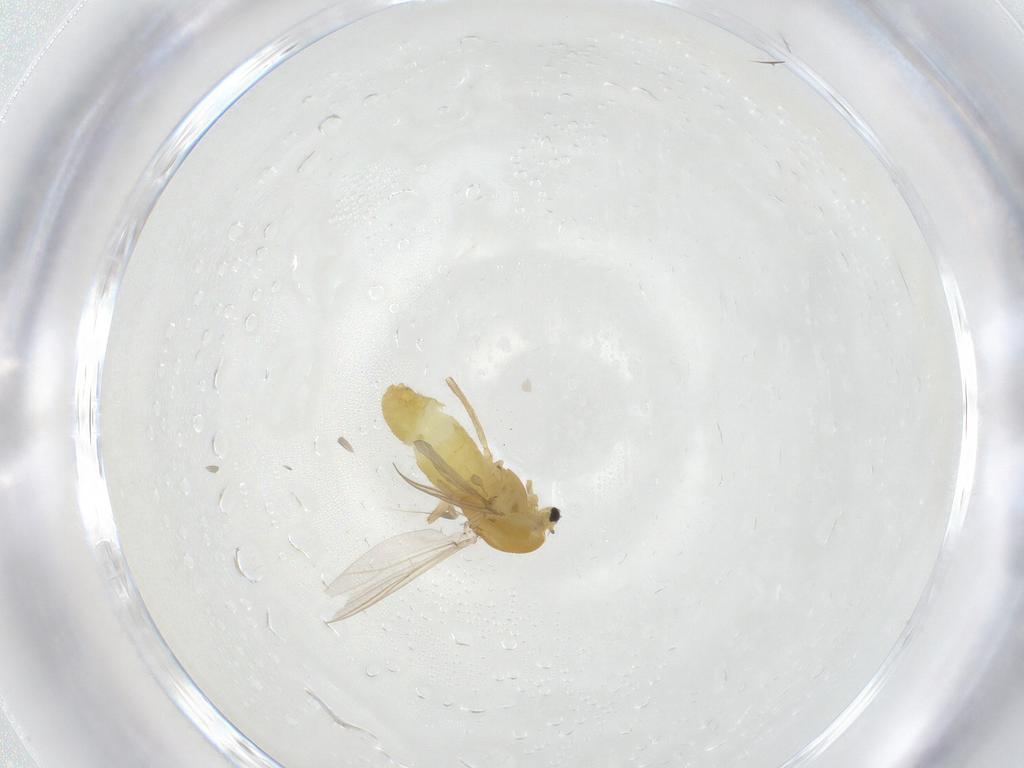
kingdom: Animalia
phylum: Arthropoda
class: Insecta
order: Diptera
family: Chironomidae
